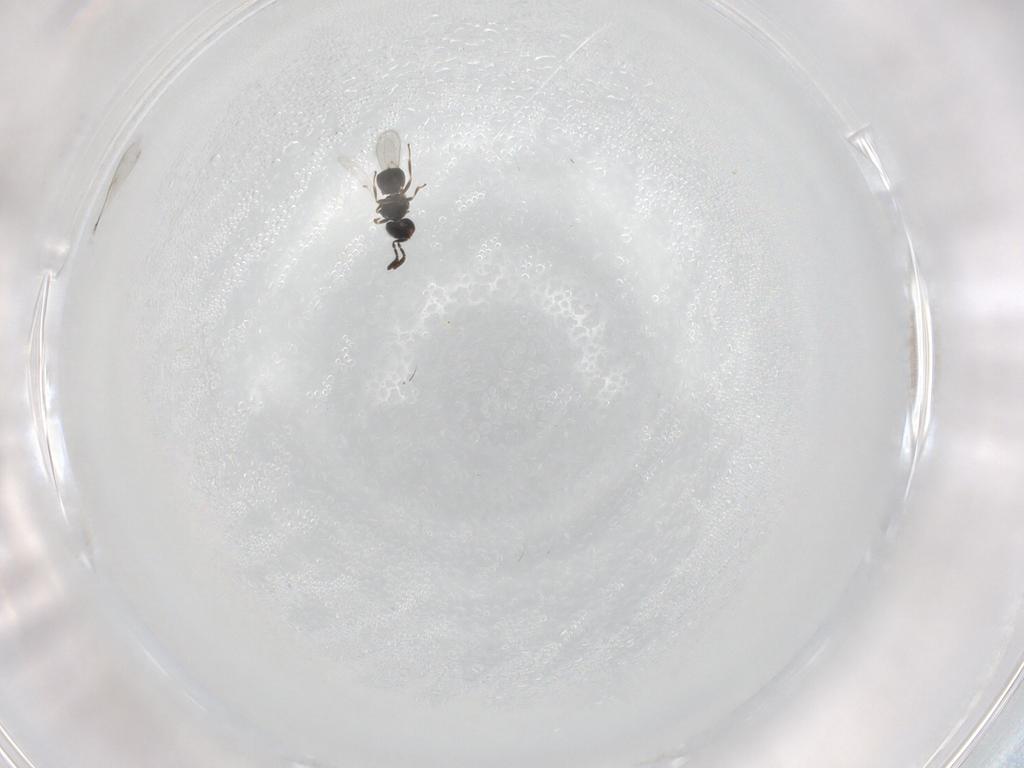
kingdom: Animalia
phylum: Arthropoda
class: Insecta
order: Hymenoptera
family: Scelionidae
